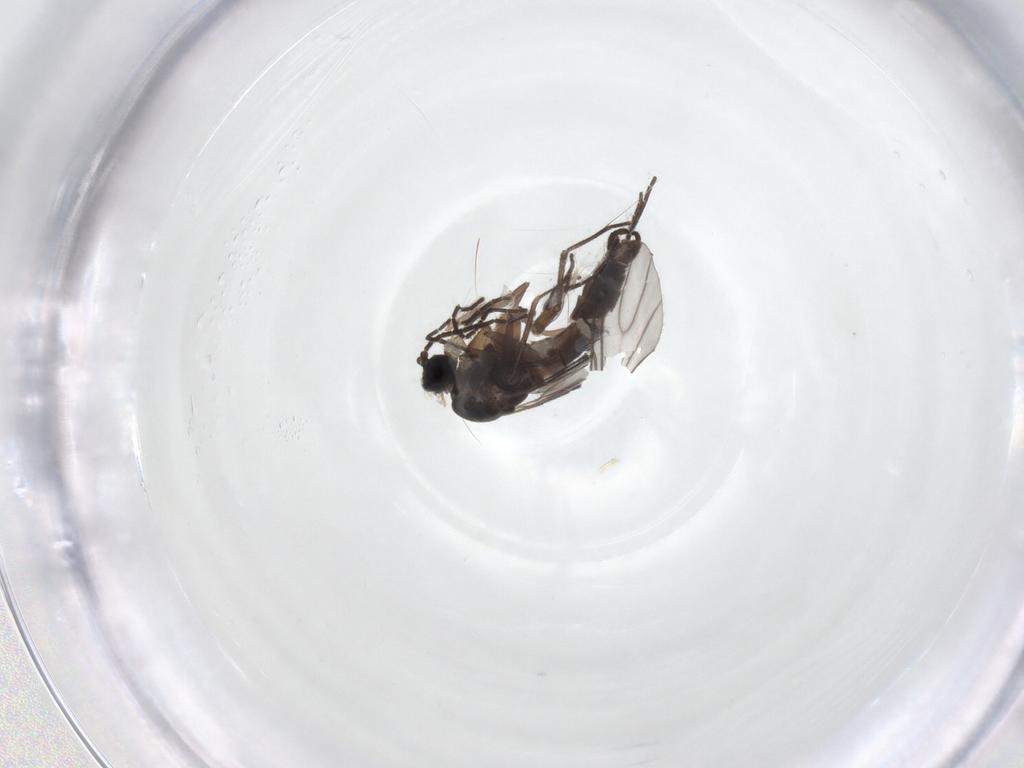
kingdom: Animalia
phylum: Arthropoda
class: Insecta
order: Diptera
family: Sciaridae
